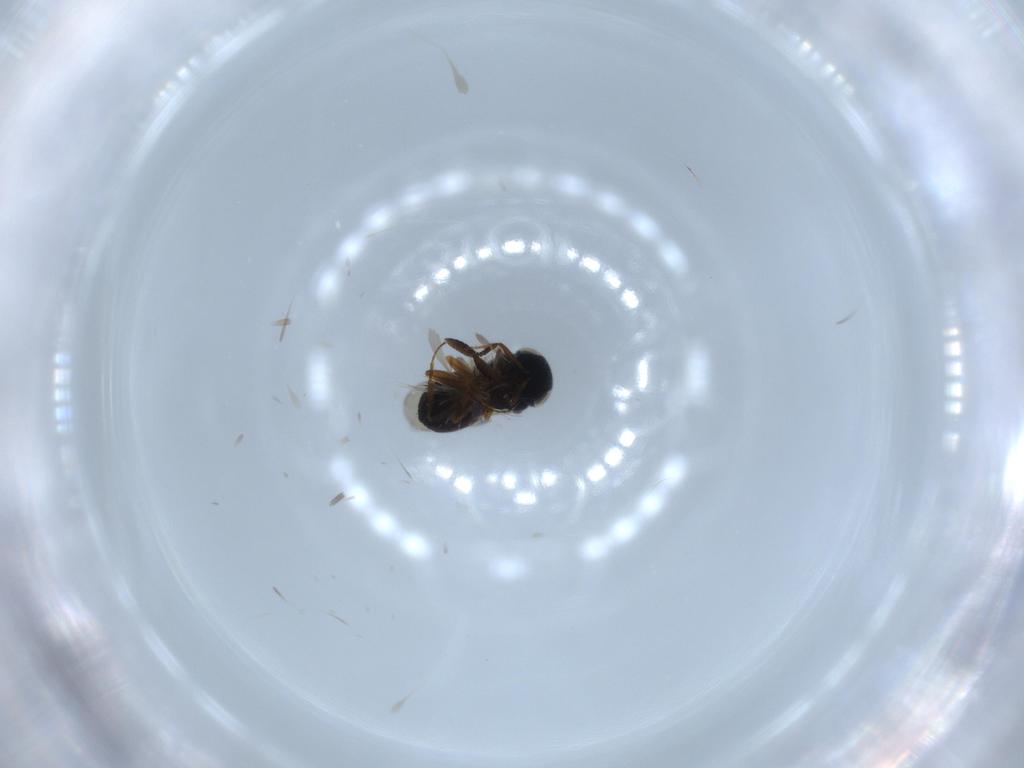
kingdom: Animalia
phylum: Arthropoda
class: Insecta
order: Coleoptera
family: Curculionidae
